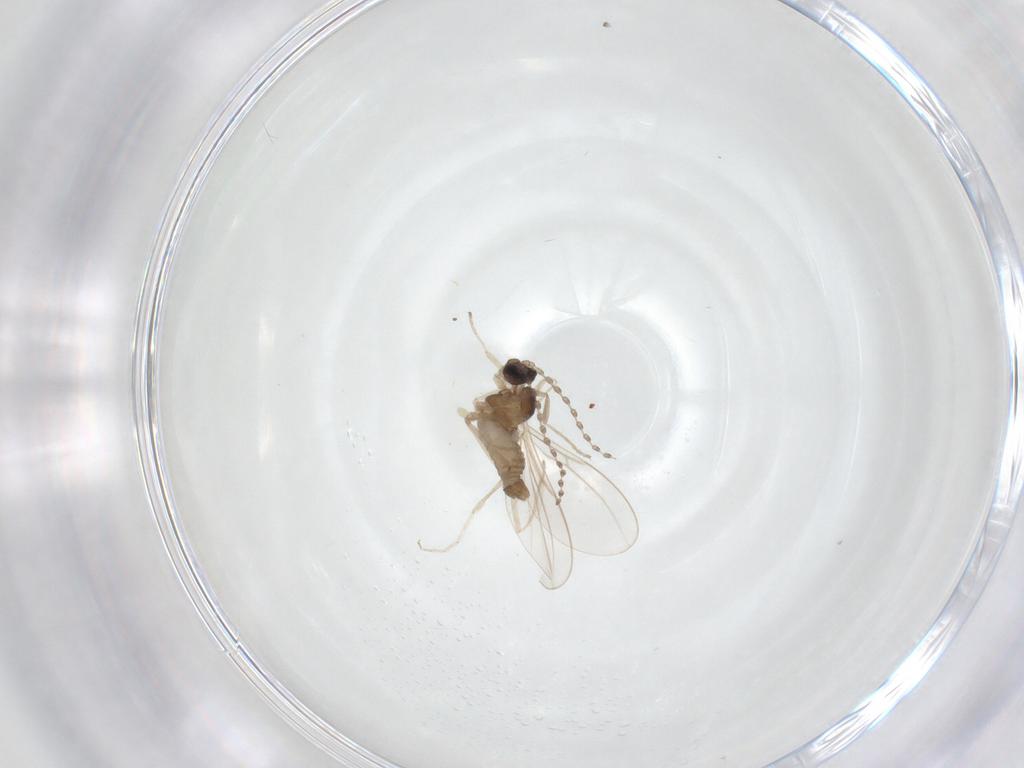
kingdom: Animalia
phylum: Arthropoda
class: Insecta
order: Diptera
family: Cecidomyiidae
